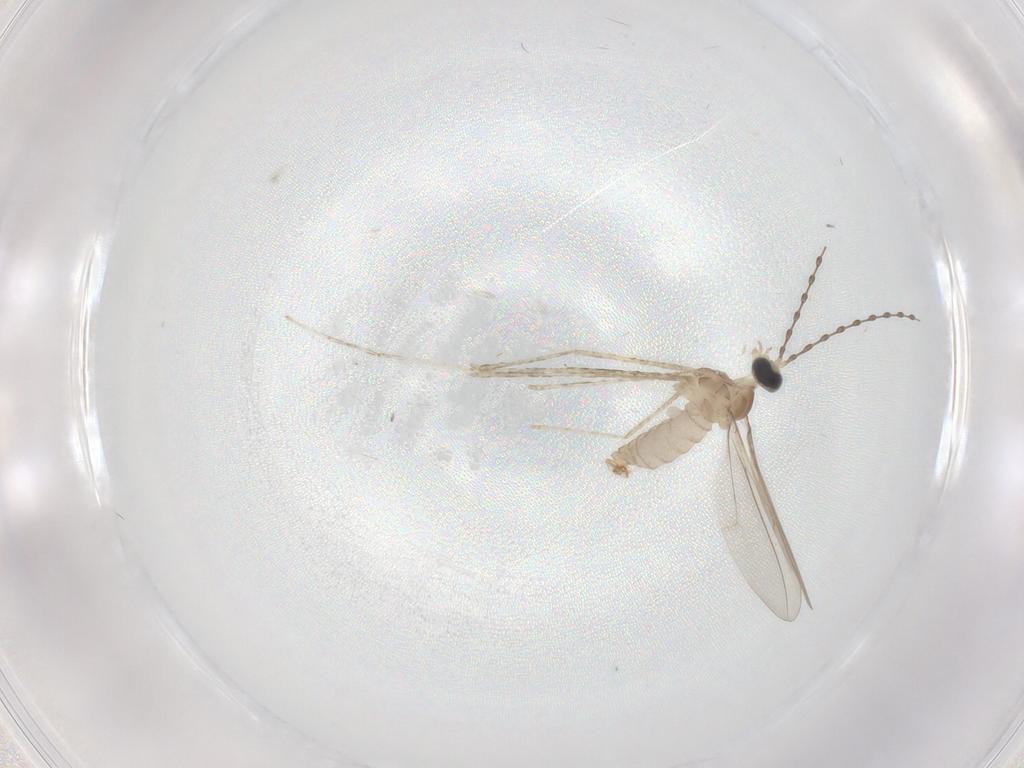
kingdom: Animalia
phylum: Arthropoda
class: Insecta
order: Diptera
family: Cecidomyiidae
